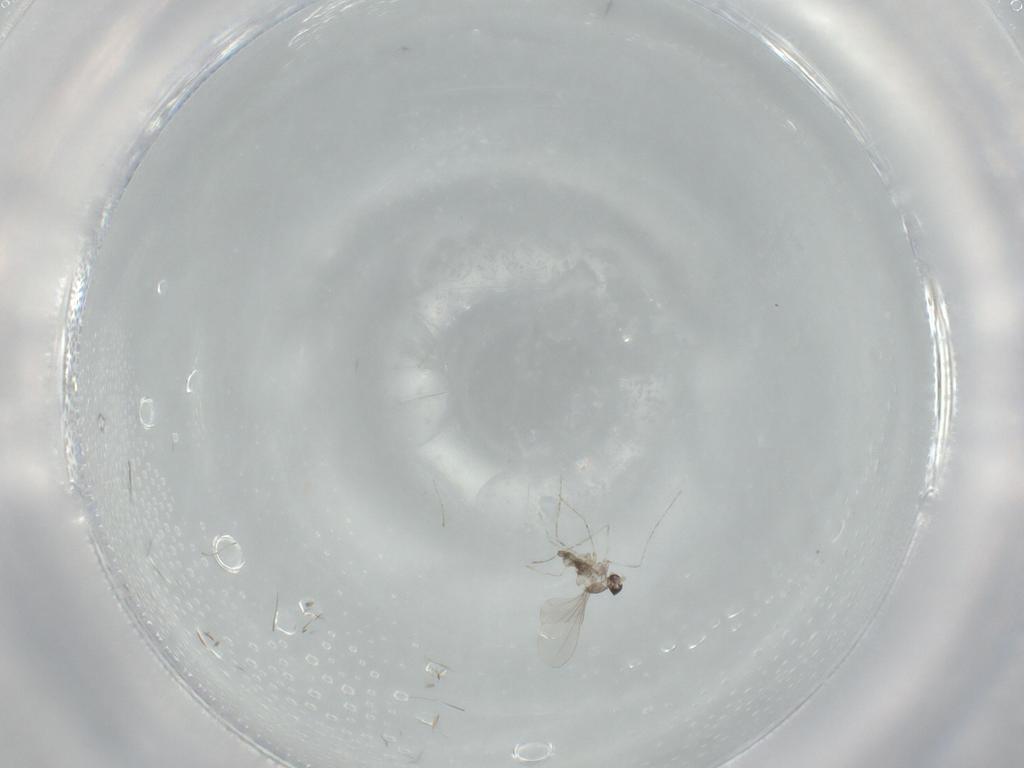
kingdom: Animalia
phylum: Arthropoda
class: Insecta
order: Diptera
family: Cecidomyiidae
